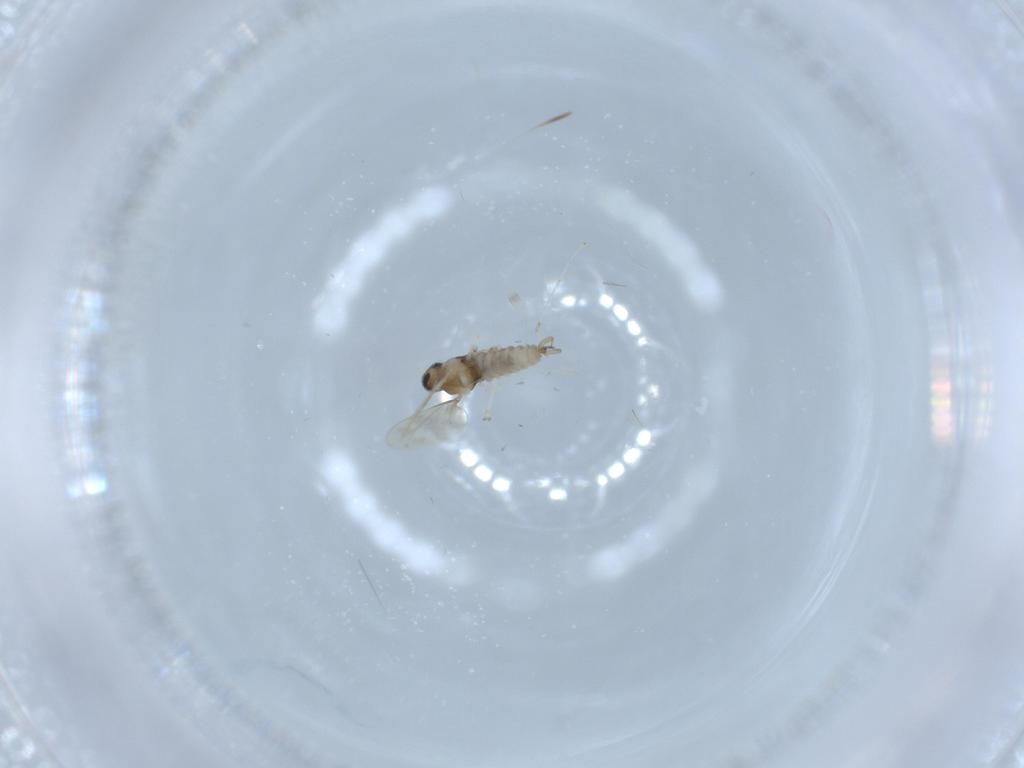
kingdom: Animalia
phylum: Arthropoda
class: Insecta
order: Diptera
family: Cecidomyiidae
